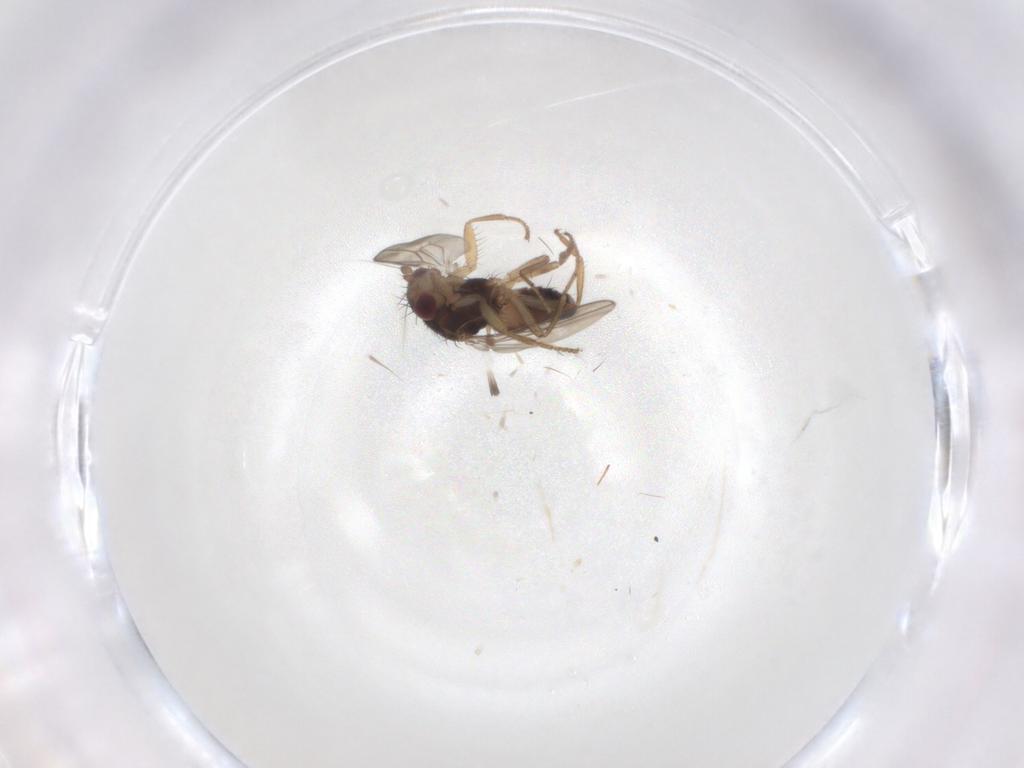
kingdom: Animalia
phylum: Arthropoda
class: Insecta
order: Diptera
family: Sphaeroceridae
